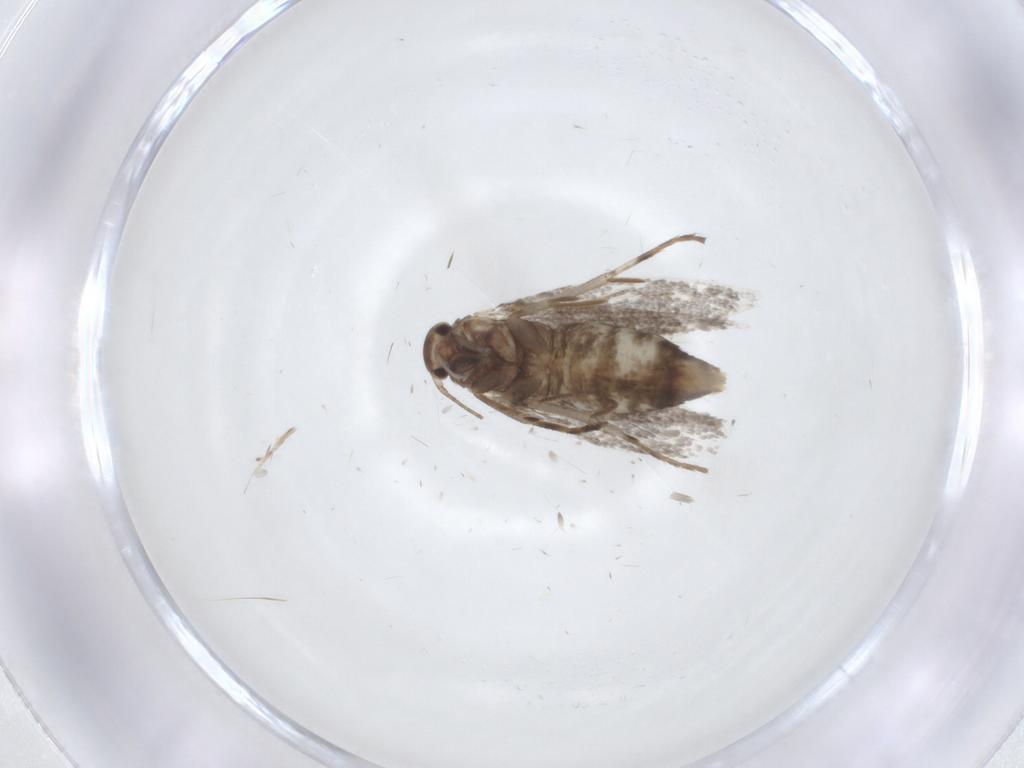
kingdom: Animalia
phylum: Arthropoda
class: Insecta
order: Lepidoptera
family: Elachistidae
